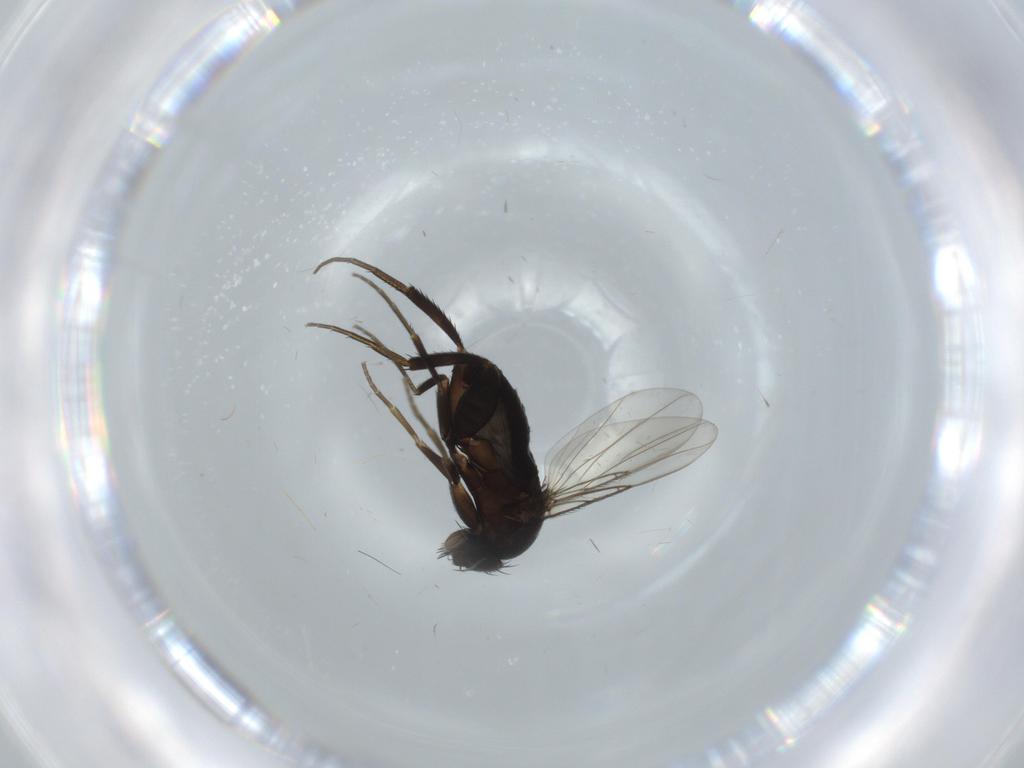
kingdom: Animalia
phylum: Arthropoda
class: Insecta
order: Diptera
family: Phoridae
